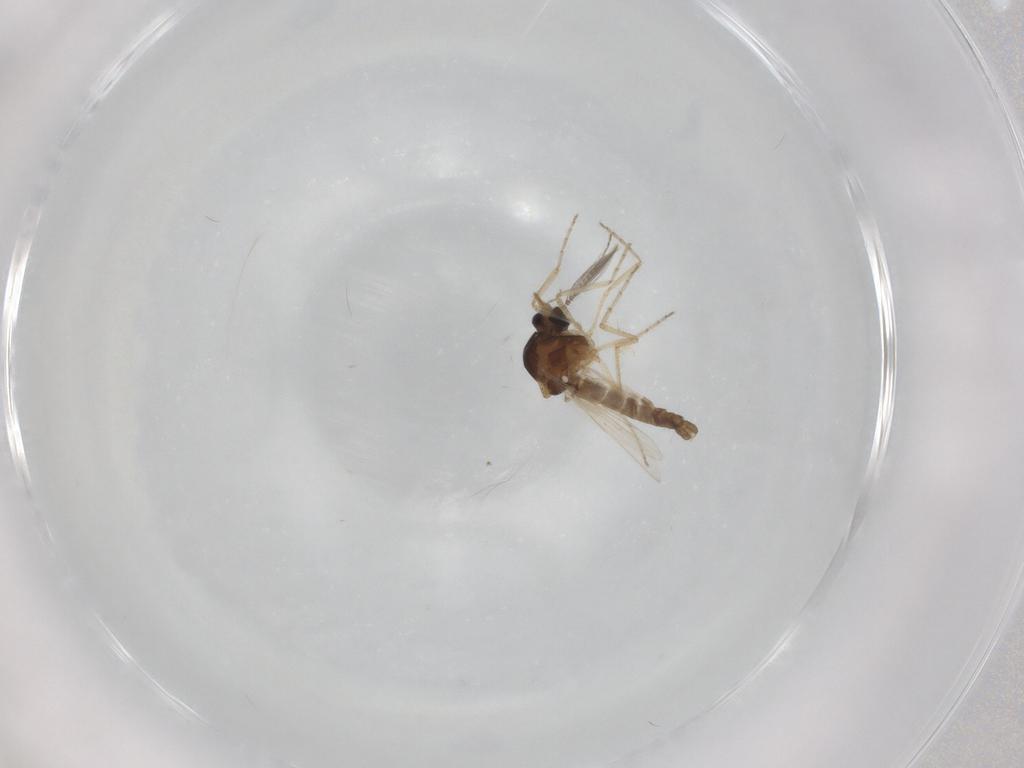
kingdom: Animalia
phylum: Arthropoda
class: Insecta
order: Diptera
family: Ceratopogonidae
